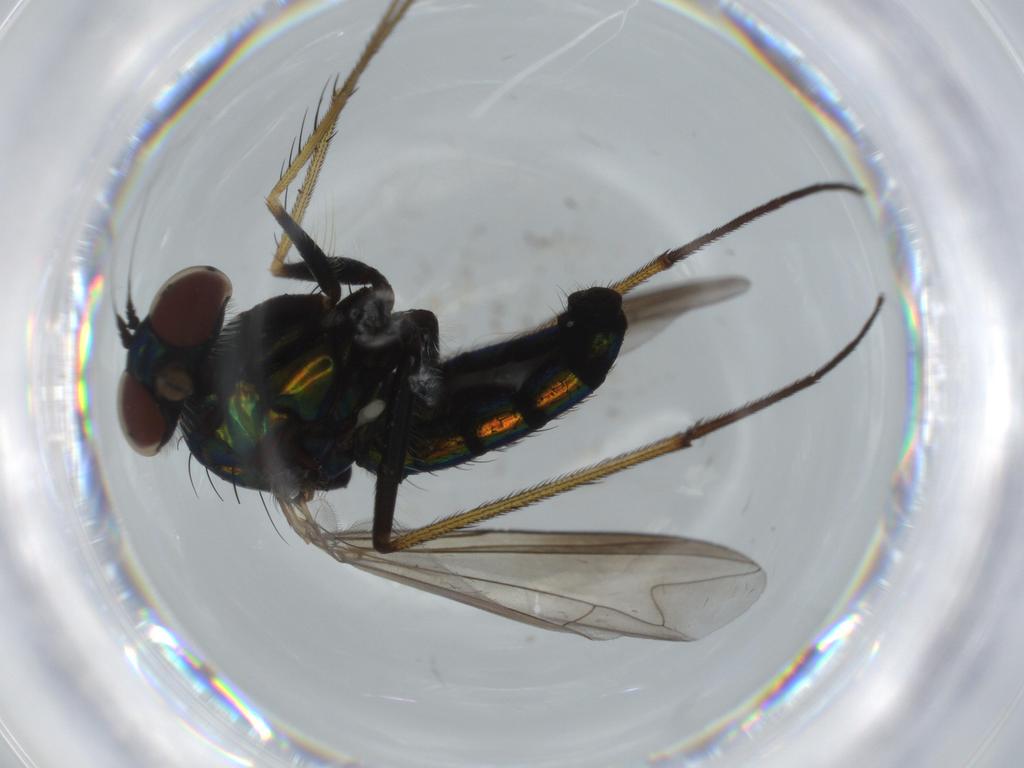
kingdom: Animalia
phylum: Arthropoda
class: Insecta
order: Diptera
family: Dolichopodidae
